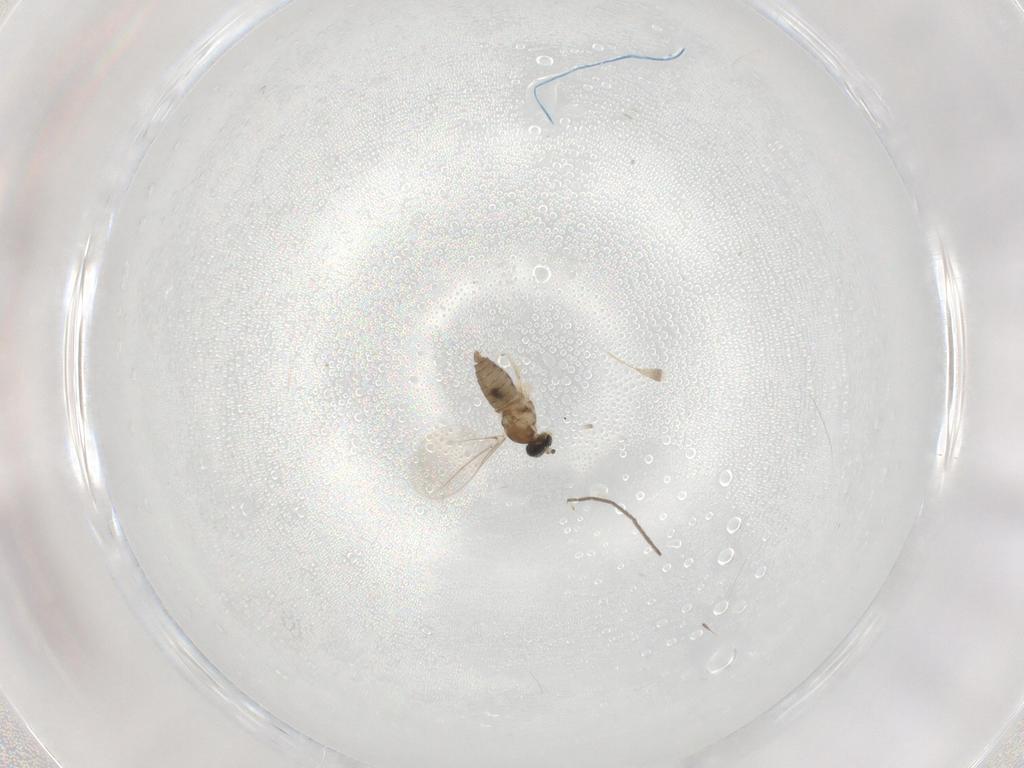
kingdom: Animalia
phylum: Arthropoda
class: Insecta
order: Diptera
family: Chironomidae
